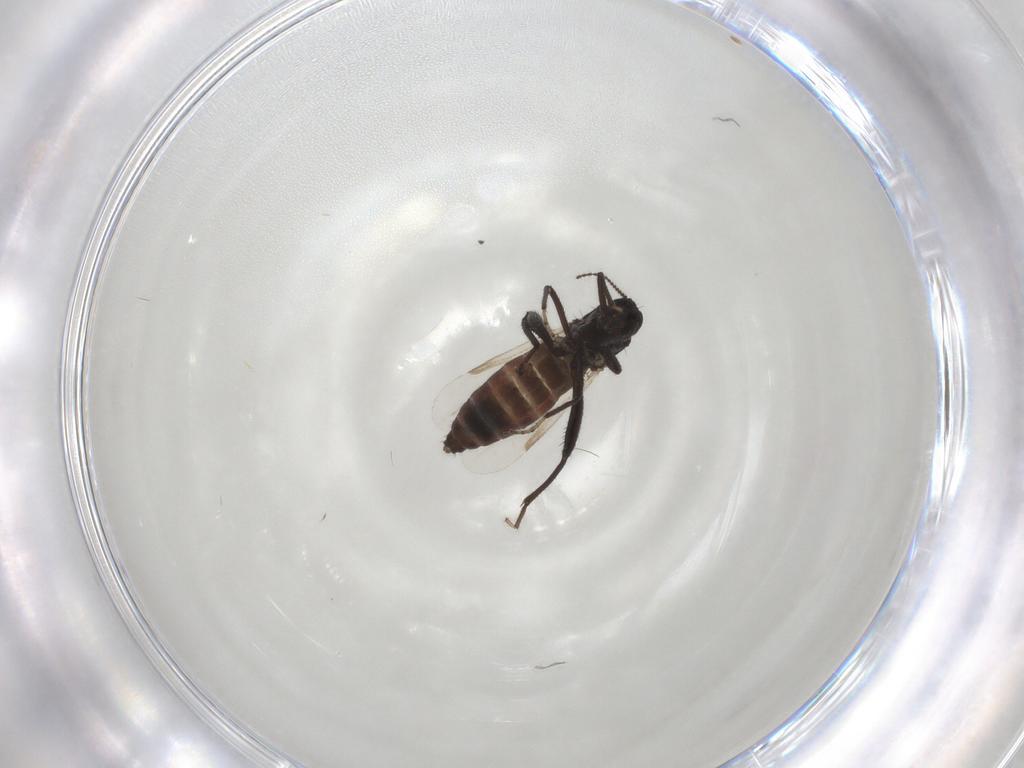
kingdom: Animalia
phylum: Arthropoda
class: Insecta
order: Diptera
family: Ceratopogonidae
